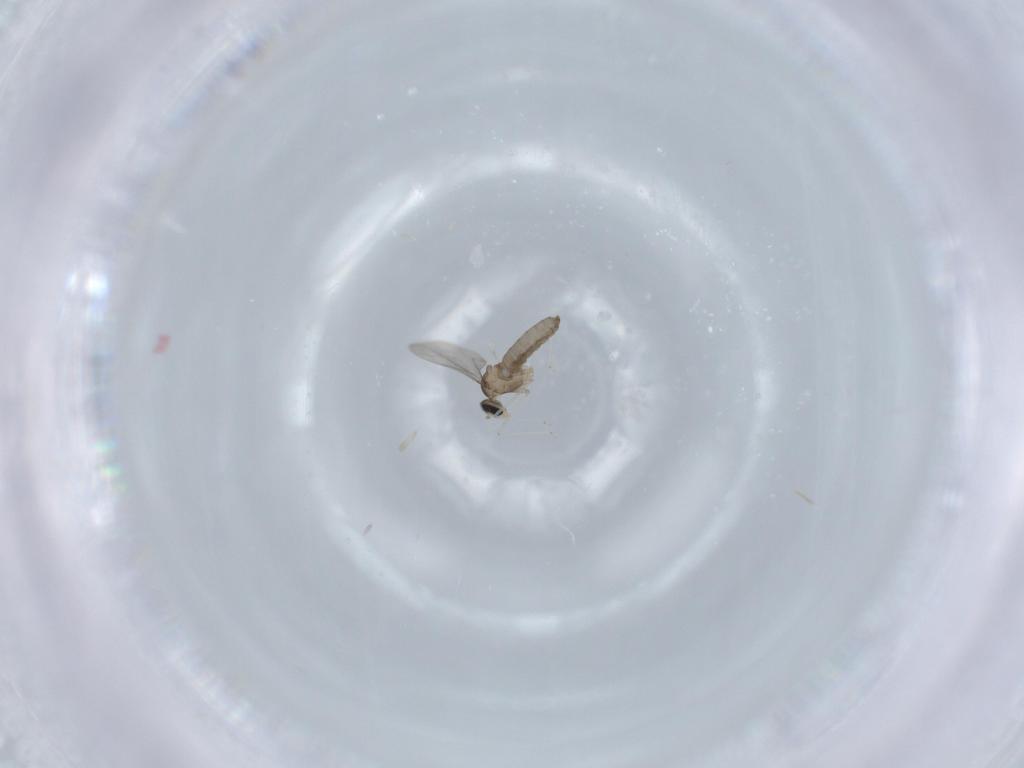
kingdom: Animalia
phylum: Arthropoda
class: Insecta
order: Diptera
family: Cecidomyiidae
